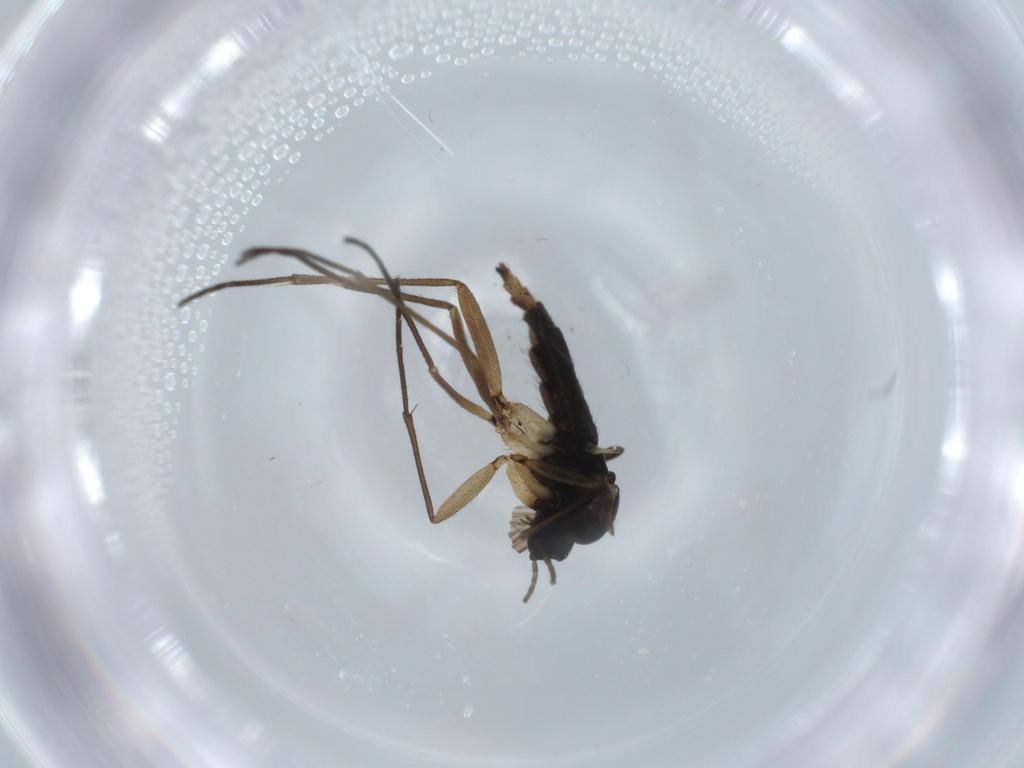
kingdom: Animalia
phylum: Arthropoda
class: Insecta
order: Diptera
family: Sciaridae
